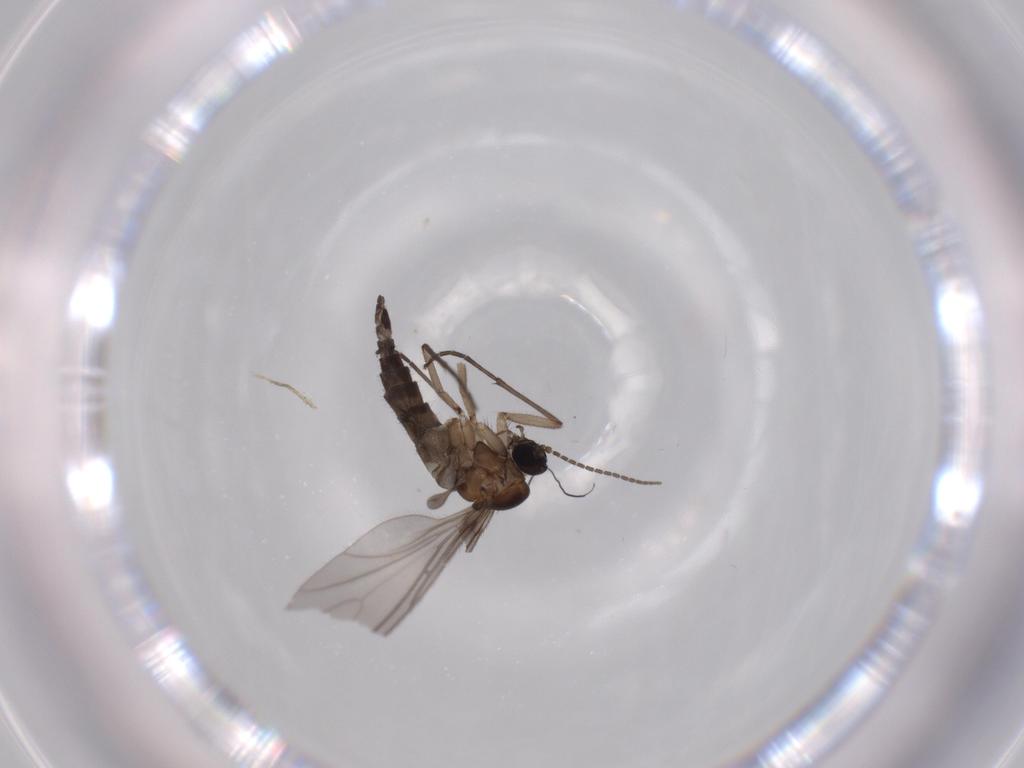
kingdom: Animalia
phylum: Arthropoda
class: Insecta
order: Diptera
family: Sciaridae
